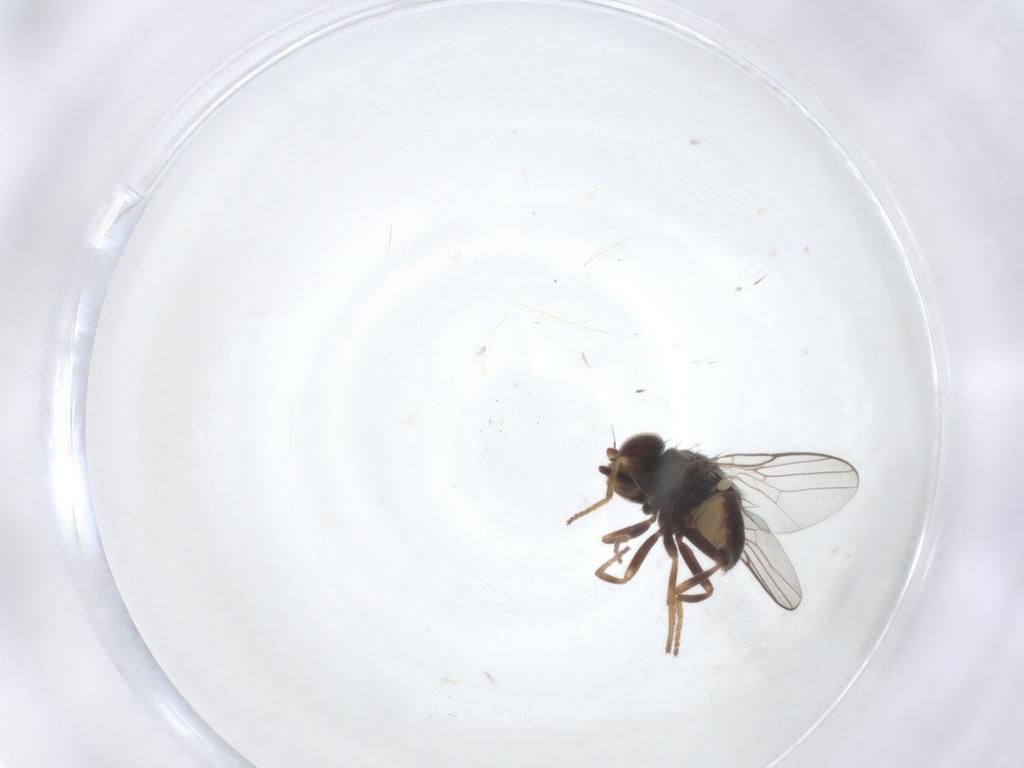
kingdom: Animalia
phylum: Arthropoda
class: Insecta
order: Diptera
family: Chloropidae
